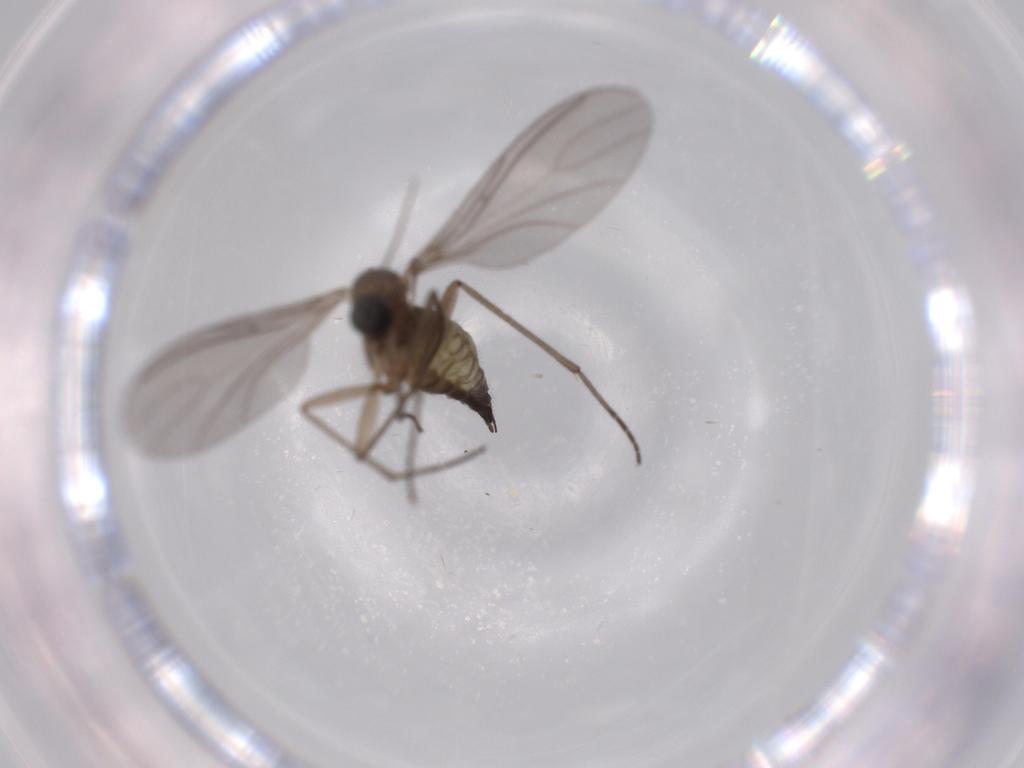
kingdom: Animalia
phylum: Arthropoda
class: Insecta
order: Diptera
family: Sciaridae
